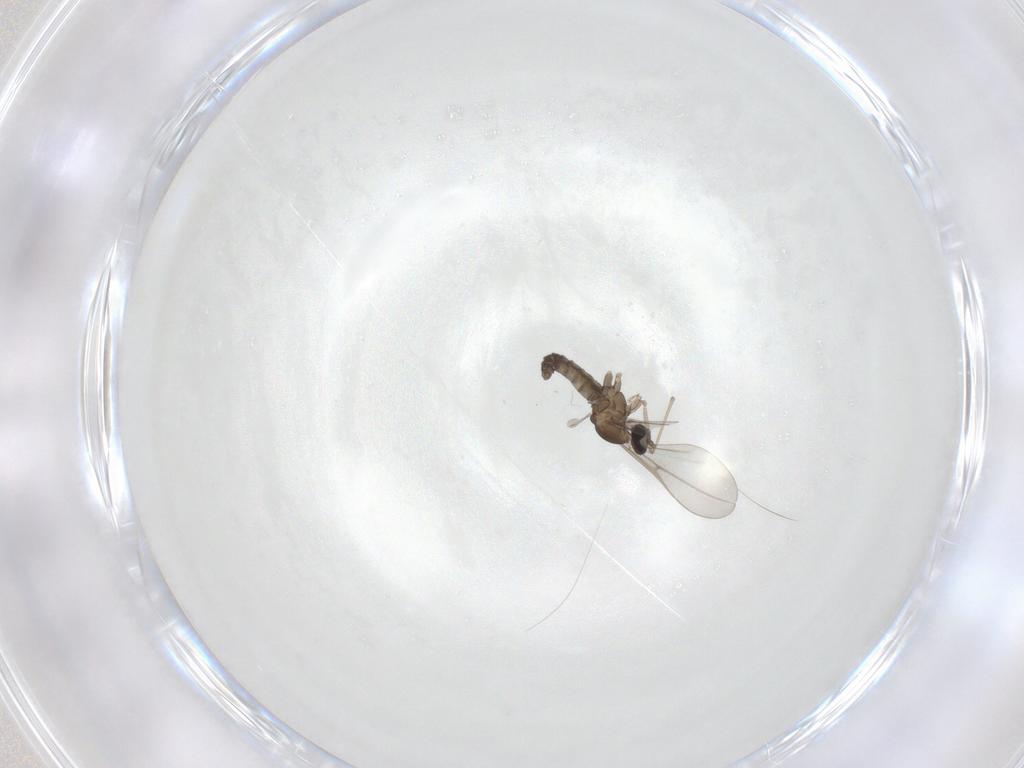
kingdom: Animalia
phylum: Arthropoda
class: Insecta
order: Diptera
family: Cecidomyiidae
